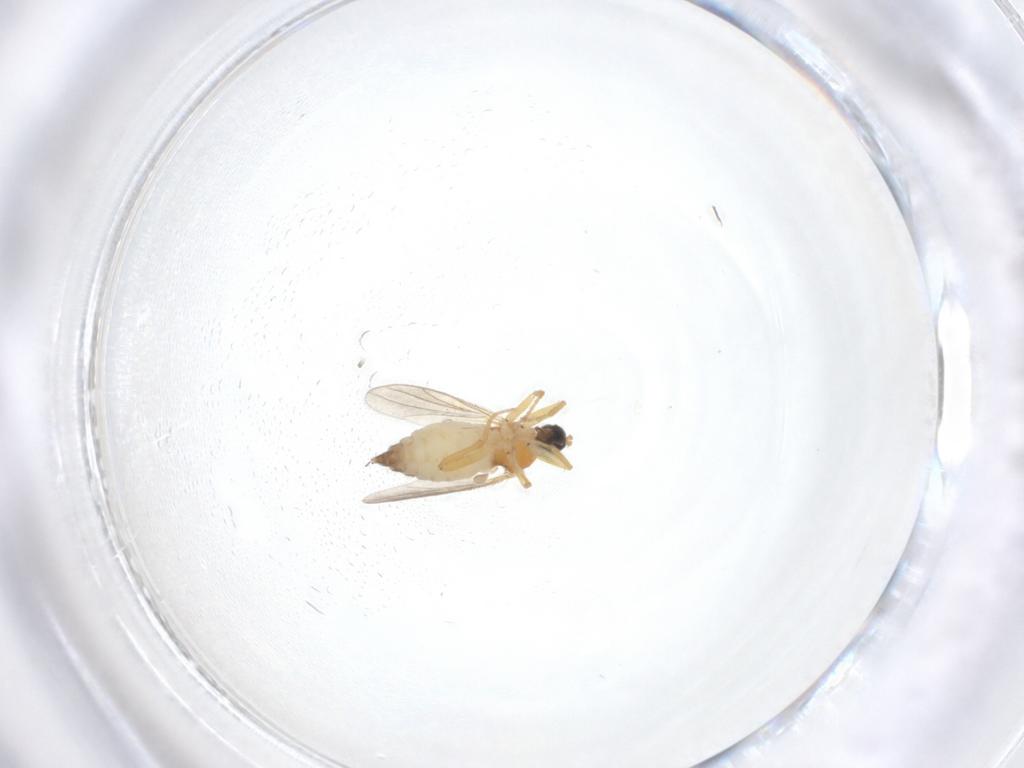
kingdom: Animalia
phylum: Arthropoda
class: Insecta
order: Diptera
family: Hybotidae
